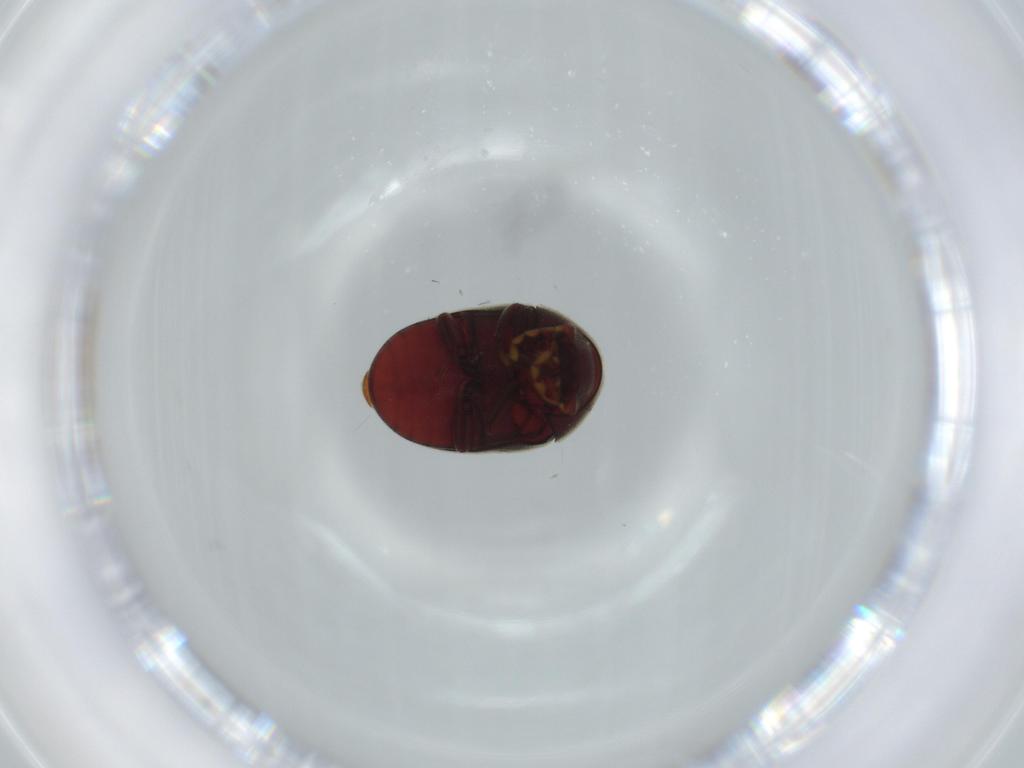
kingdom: Animalia
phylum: Arthropoda
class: Insecta
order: Coleoptera
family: Ptinidae
